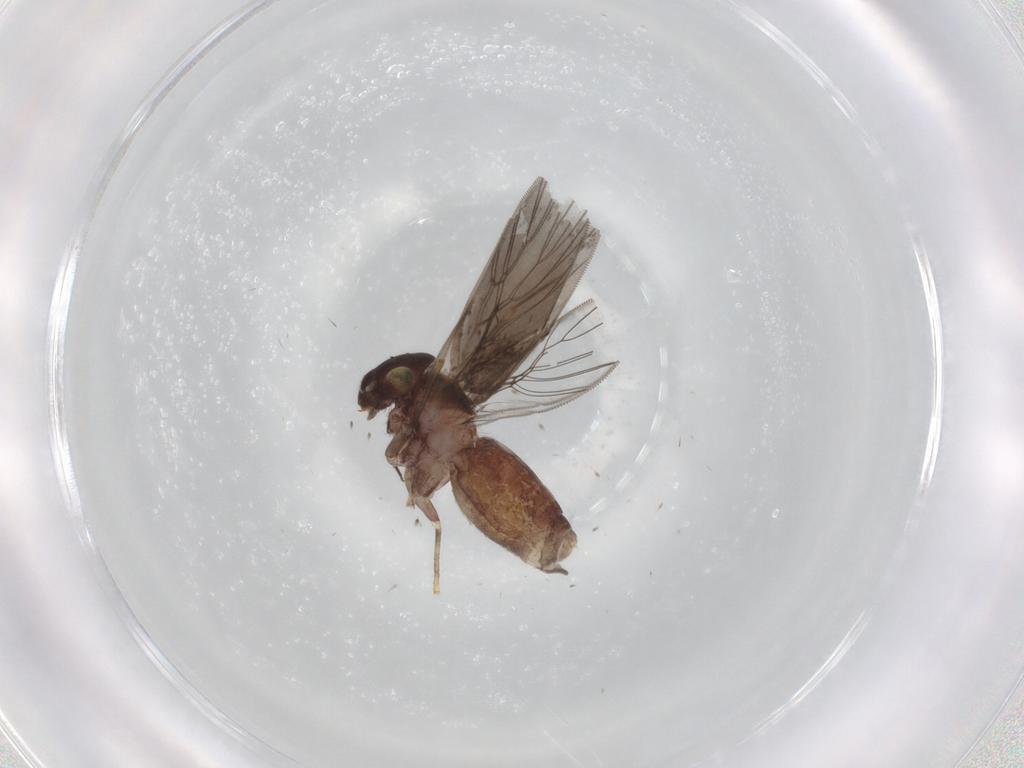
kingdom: Animalia
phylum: Arthropoda
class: Insecta
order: Psocodea
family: Lepidopsocidae
